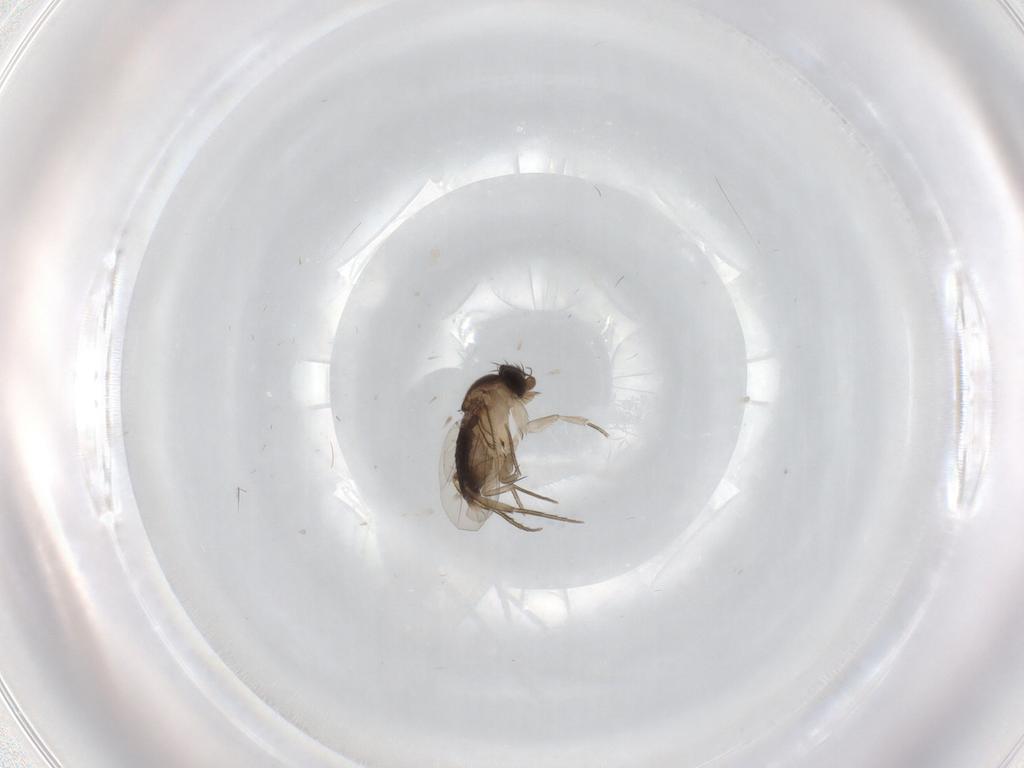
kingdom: Animalia
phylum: Arthropoda
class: Insecta
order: Diptera
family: Phoridae
